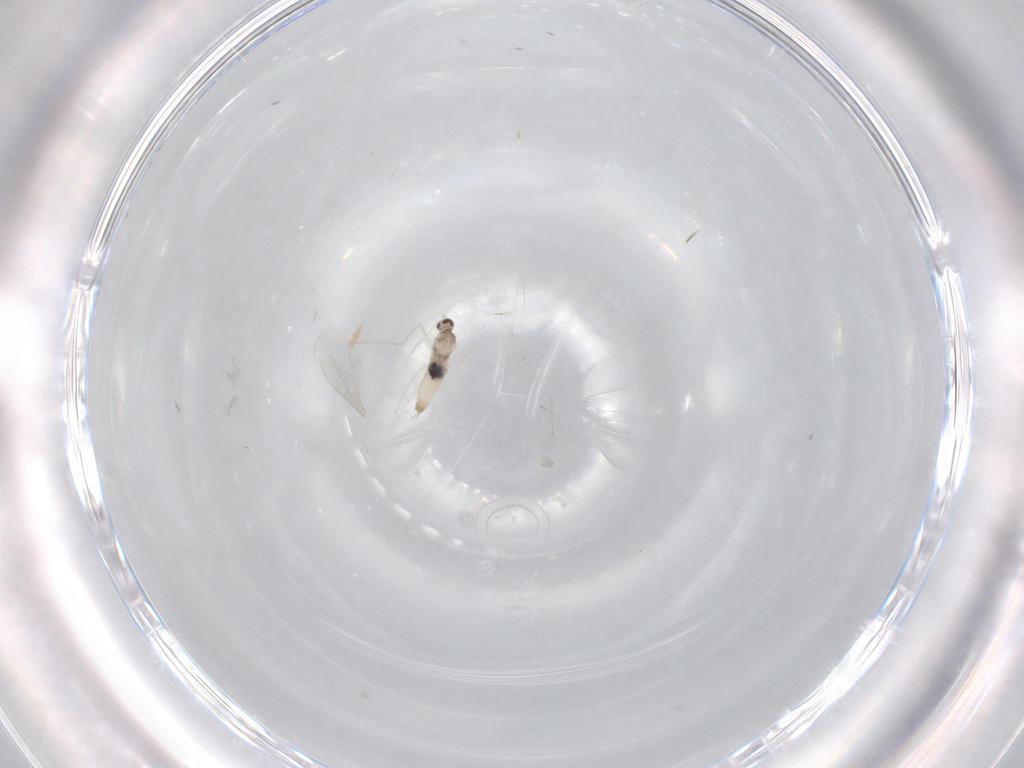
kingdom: Animalia
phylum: Arthropoda
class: Insecta
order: Diptera
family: Cecidomyiidae
